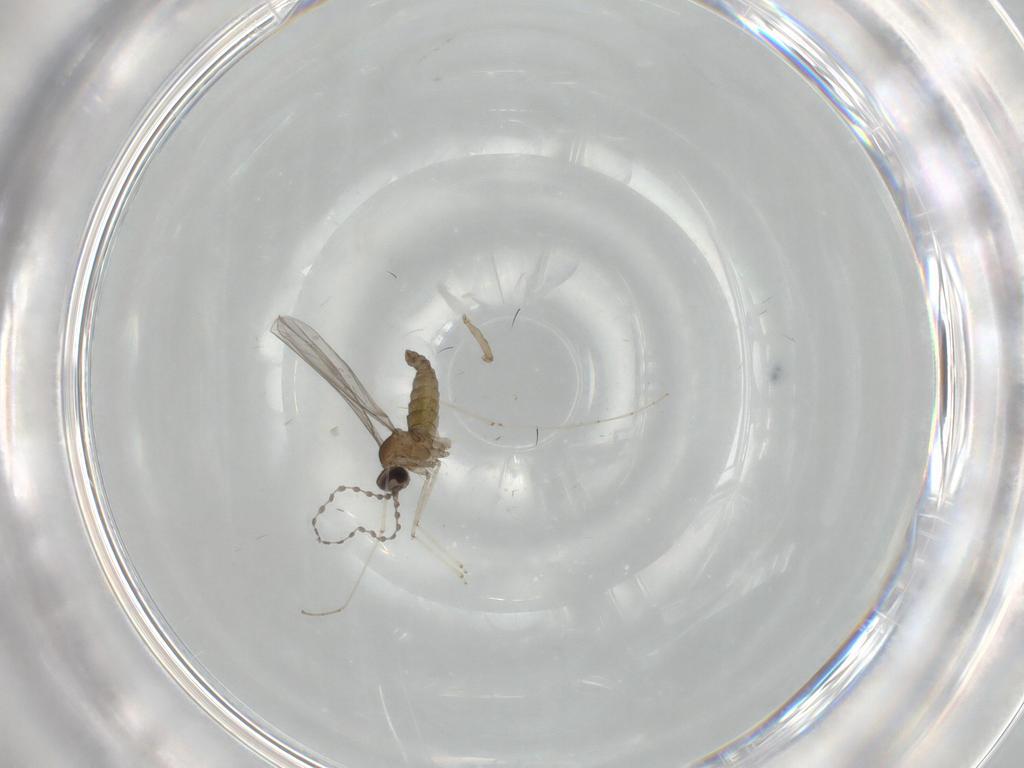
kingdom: Animalia
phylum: Arthropoda
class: Insecta
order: Diptera
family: Psychodidae
